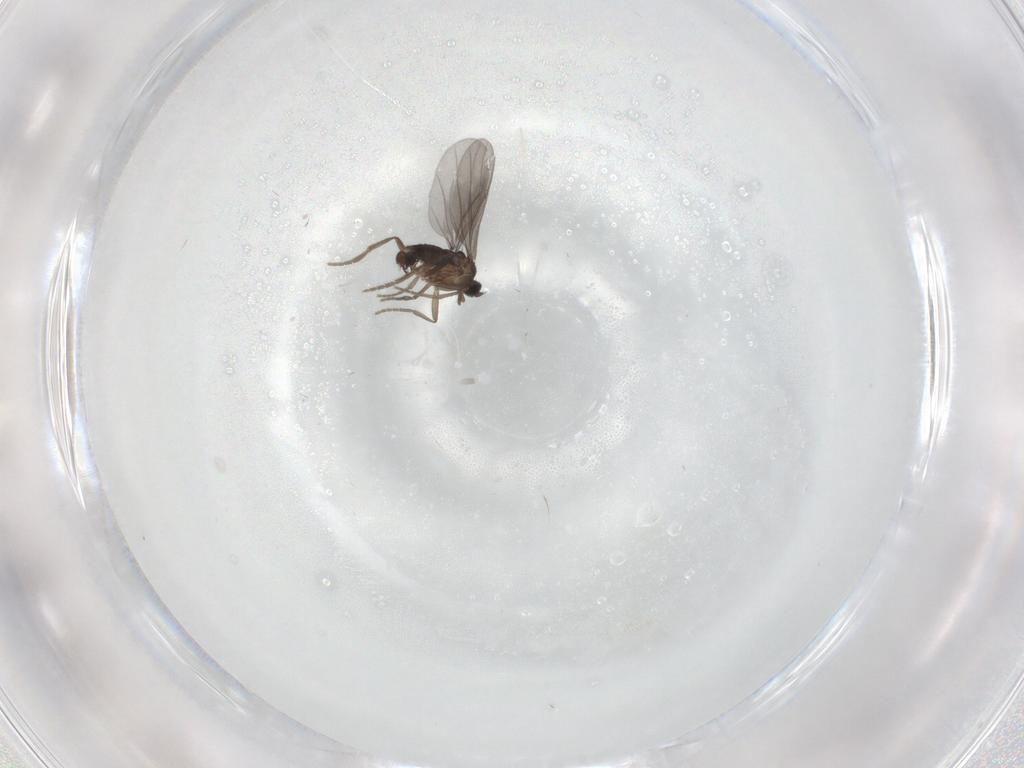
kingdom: Animalia
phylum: Arthropoda
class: Insecta
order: Diptera
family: Phoridae
